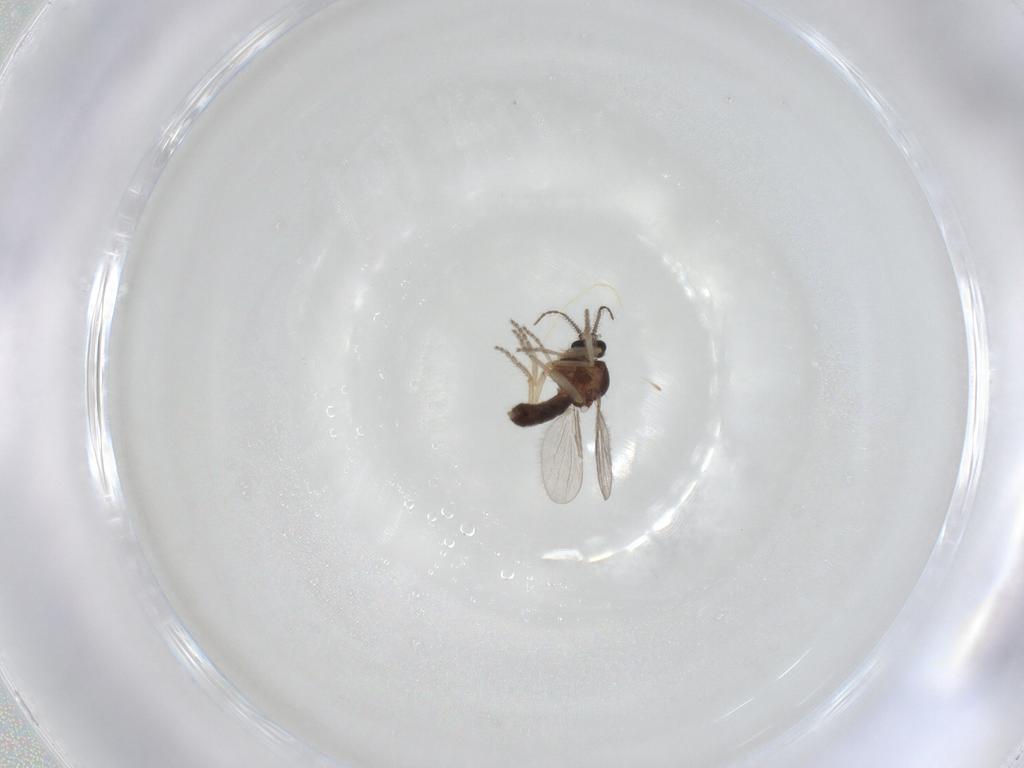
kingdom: Animalia
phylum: Arthropoda
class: Insecta
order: Diptera
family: Ceratopogonidae
